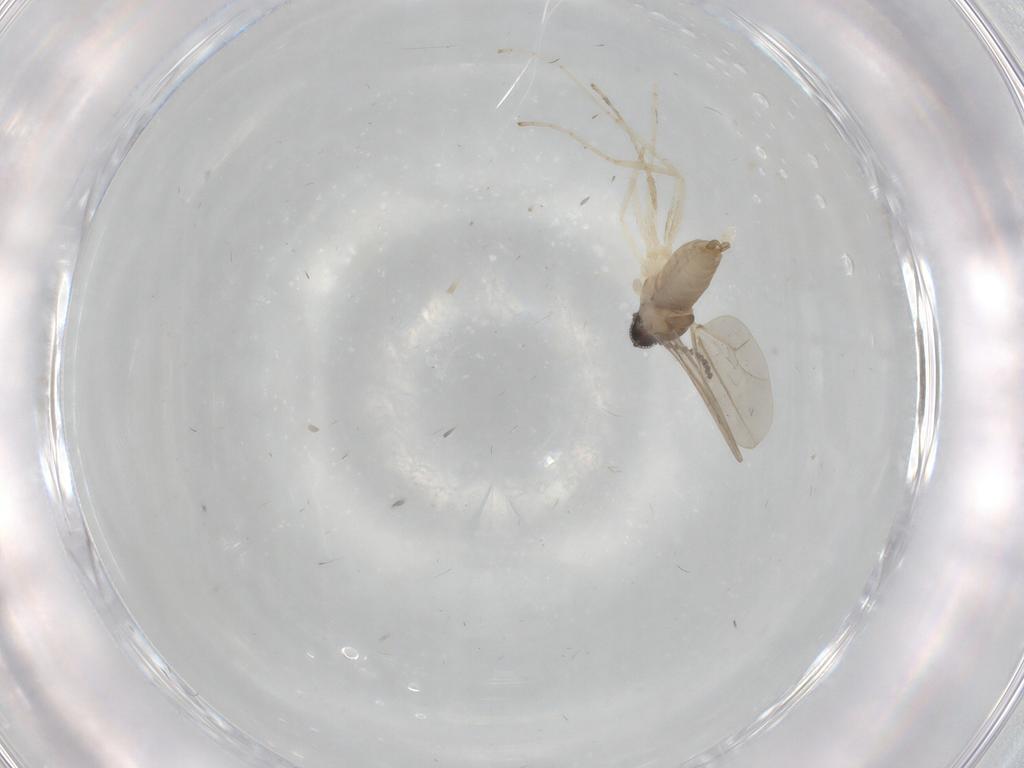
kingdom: Animalia
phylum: Arthropoda
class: Insecta
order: Diptera
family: Cecidomyiidae
